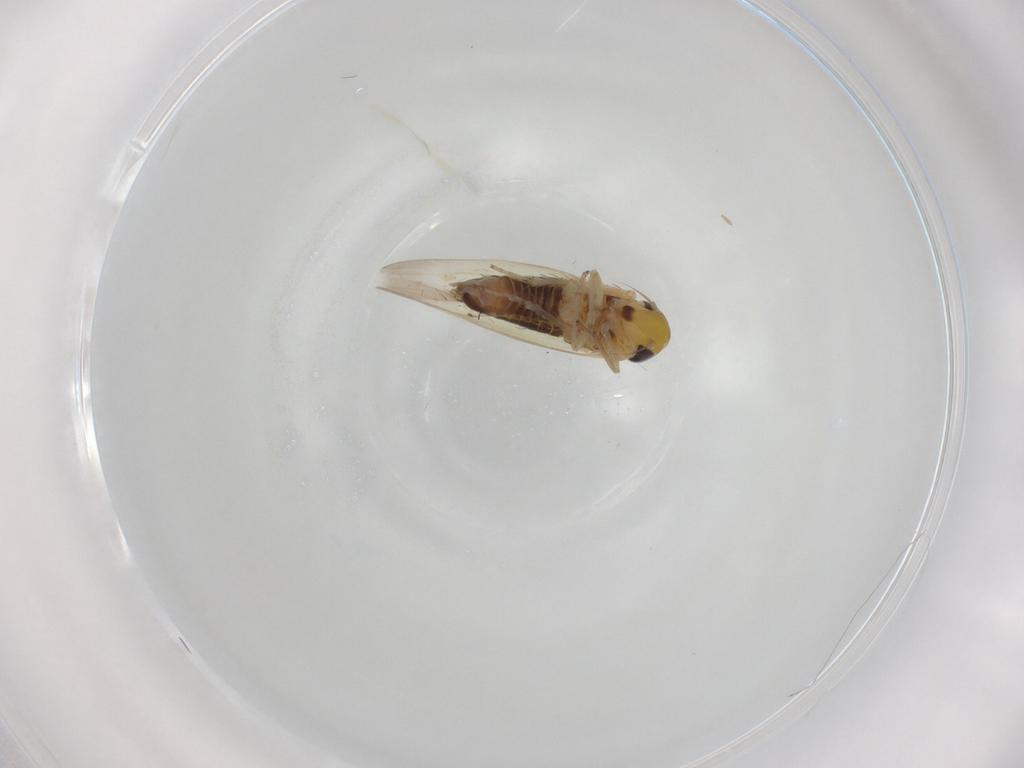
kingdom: Animalia
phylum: Arthropoda
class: Insecta
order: Hemiptera
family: Cicadellidae
